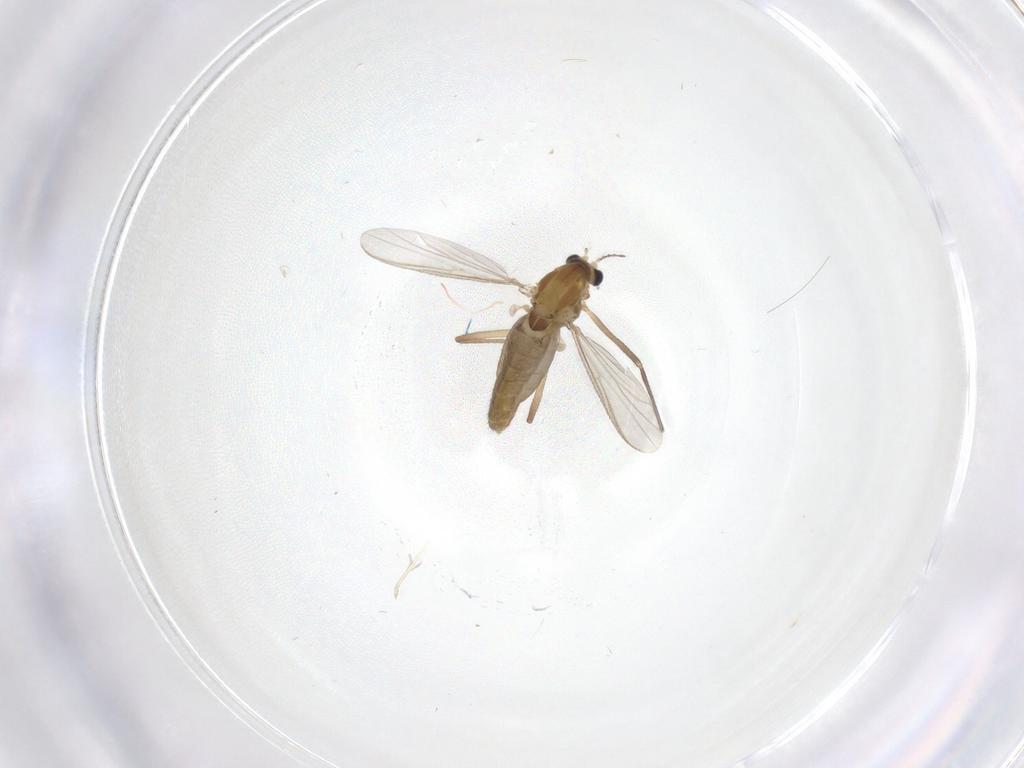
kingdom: Animalia
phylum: Arthropoda
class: Insecta
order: Diptera
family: Chironomidae
